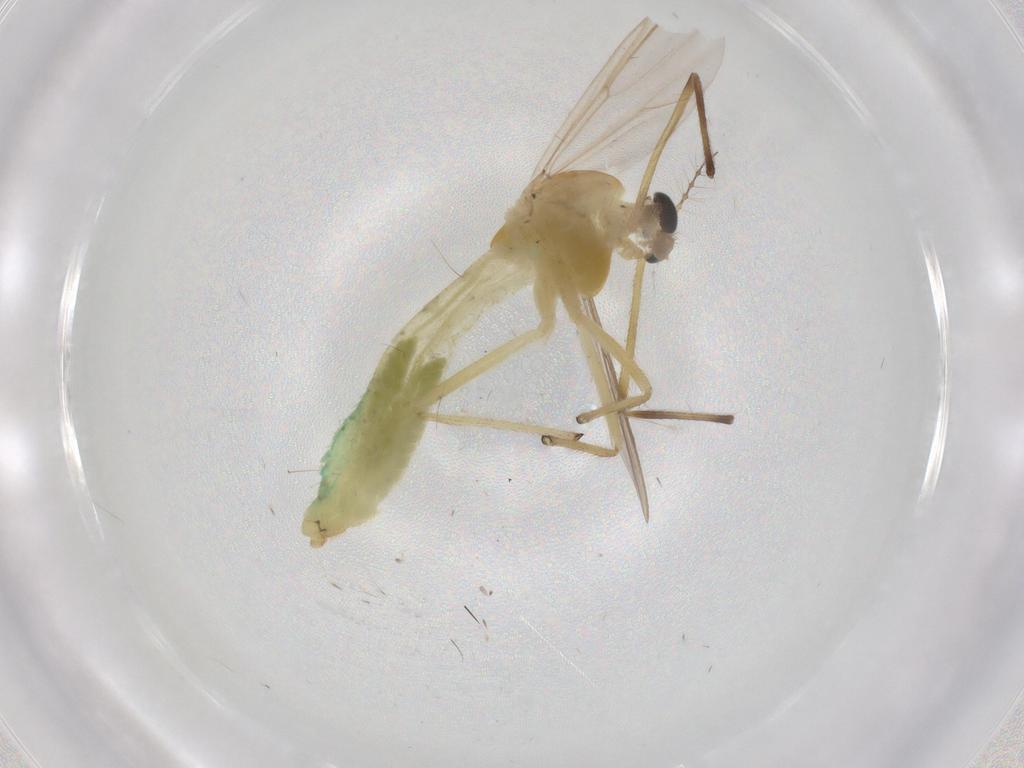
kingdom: Animalia
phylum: Arthropoda
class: Insecta
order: Diptera
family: Chironomidae
